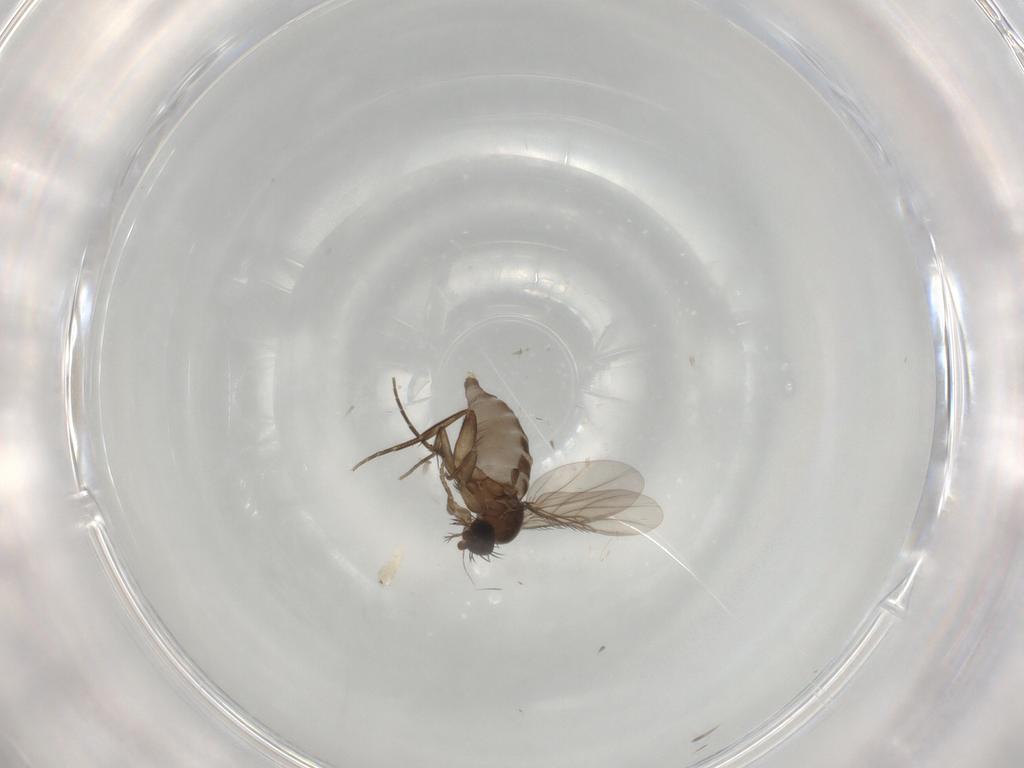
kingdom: Animalia
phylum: Arthropoda
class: Insecta
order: Diptera
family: Phoridae
